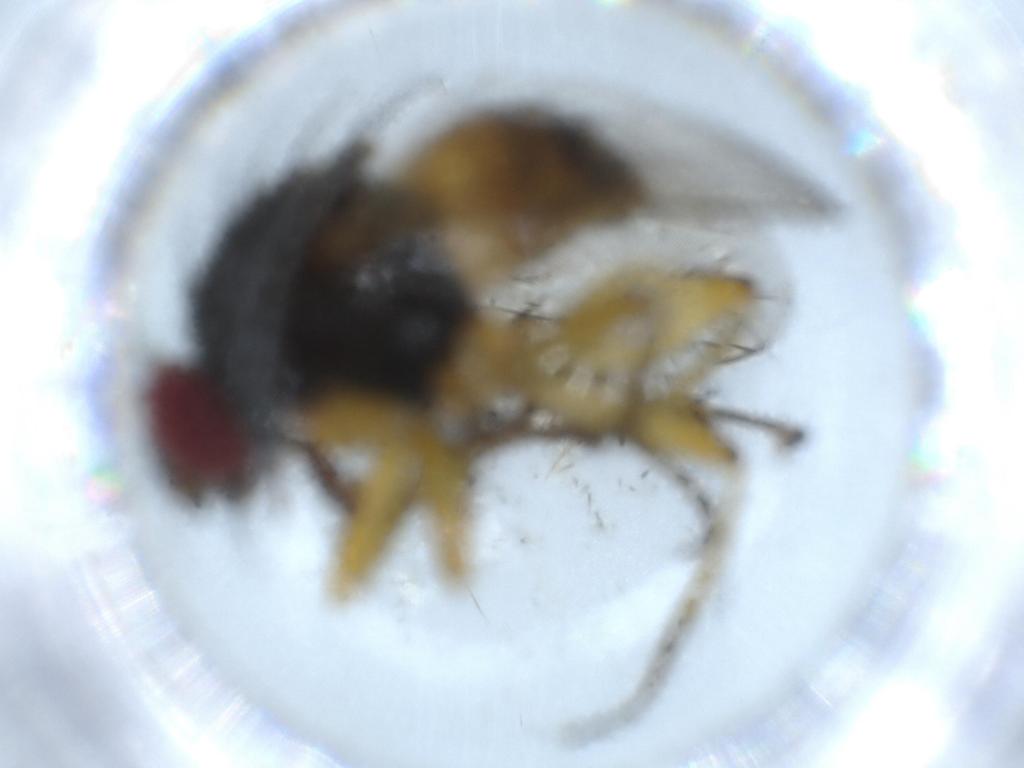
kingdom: Animalia
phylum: Arthropoda
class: Insecta
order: Diptera
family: Muscidae
